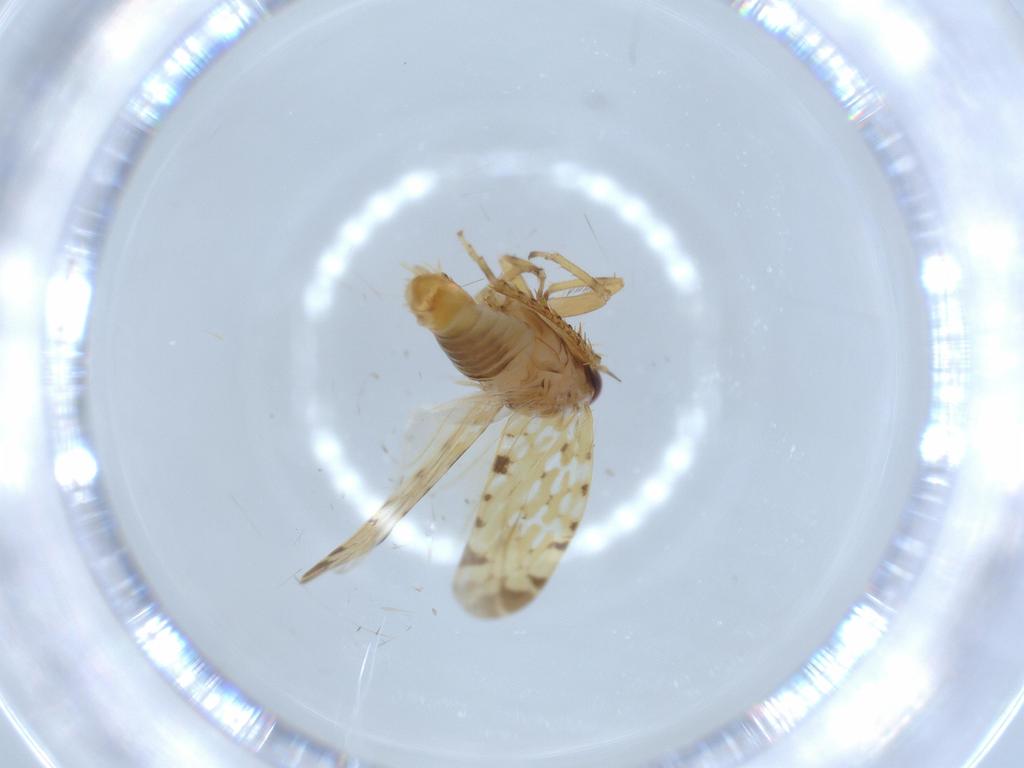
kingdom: Animalia
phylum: Arthropoda
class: Insecta
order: Hemiptera
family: Cicadellidae
